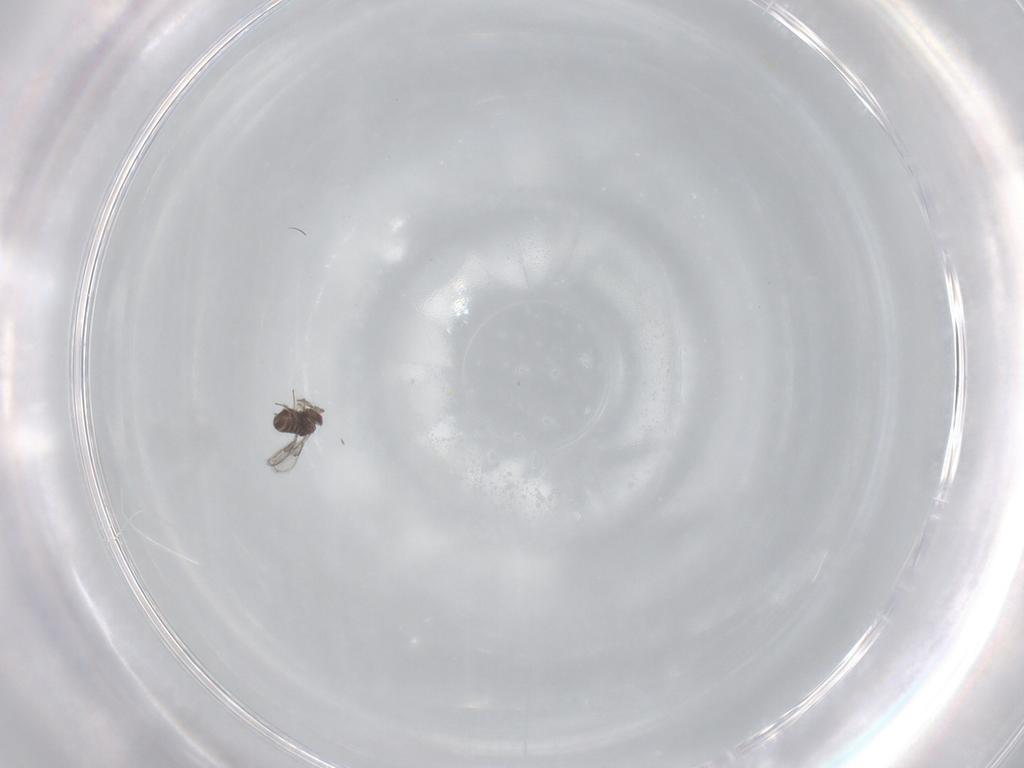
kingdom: Animalia
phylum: Arthropoda
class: Insecta
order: Hymenoptera
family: Trichogrammatidae
